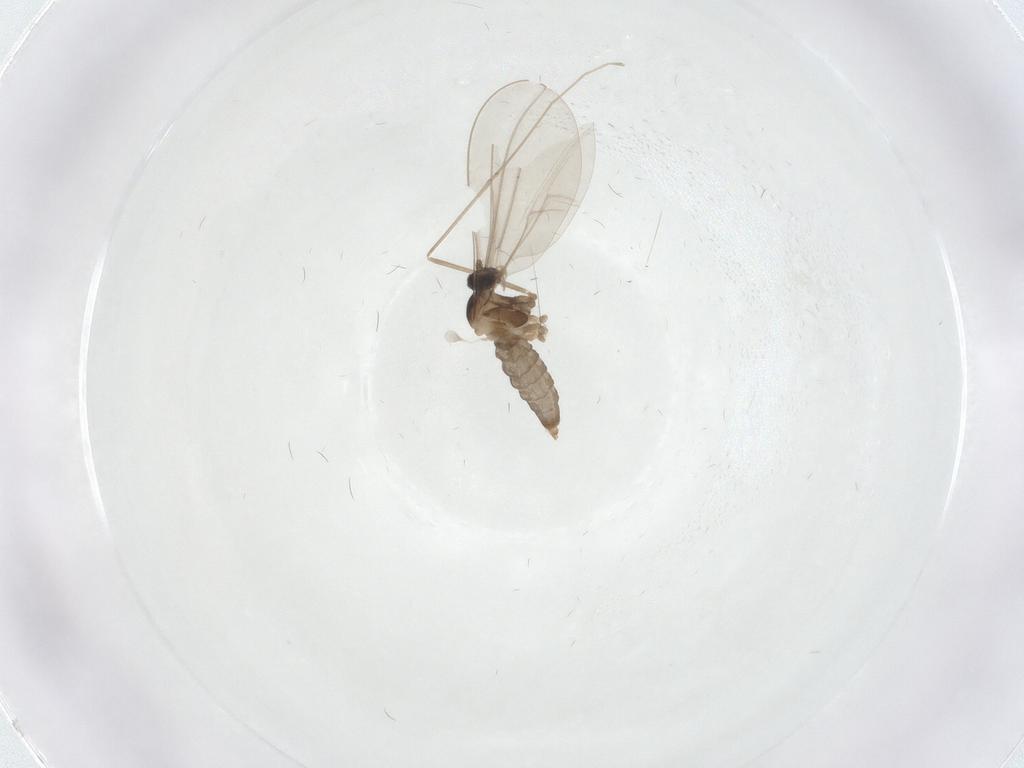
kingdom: Animalia
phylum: Arthropoda
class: Insecta
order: Diptera
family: Cecidomyiidae
